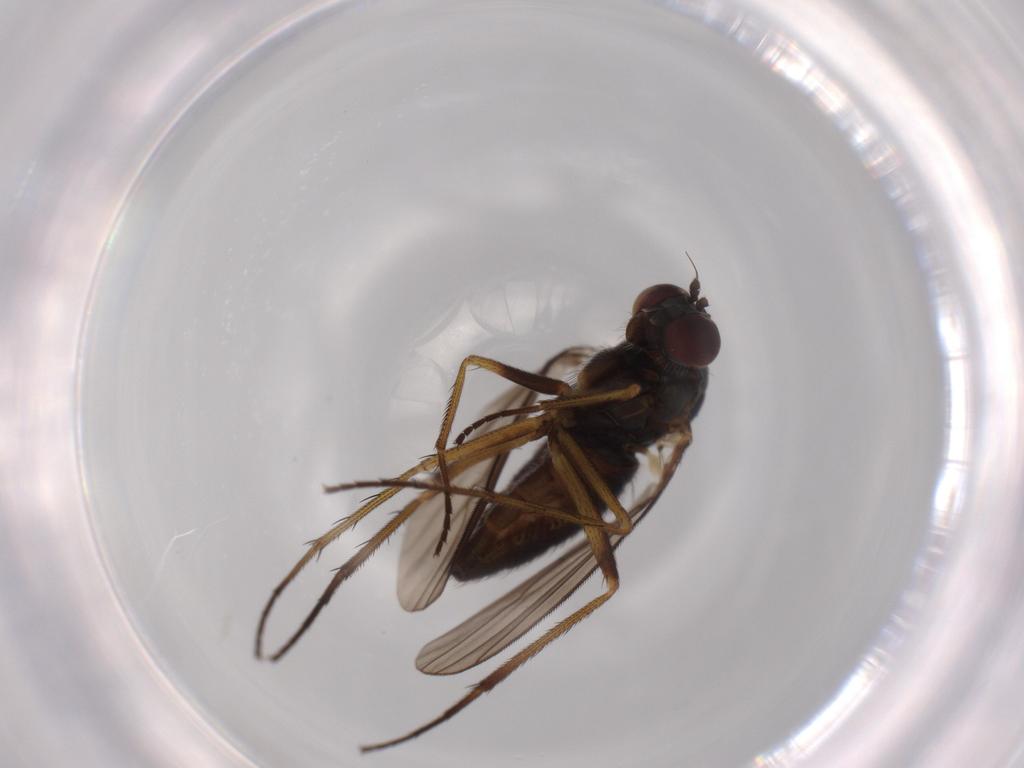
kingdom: Animalia
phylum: Arthropoda
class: Insecta
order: Diptera
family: Dolichopodidae
